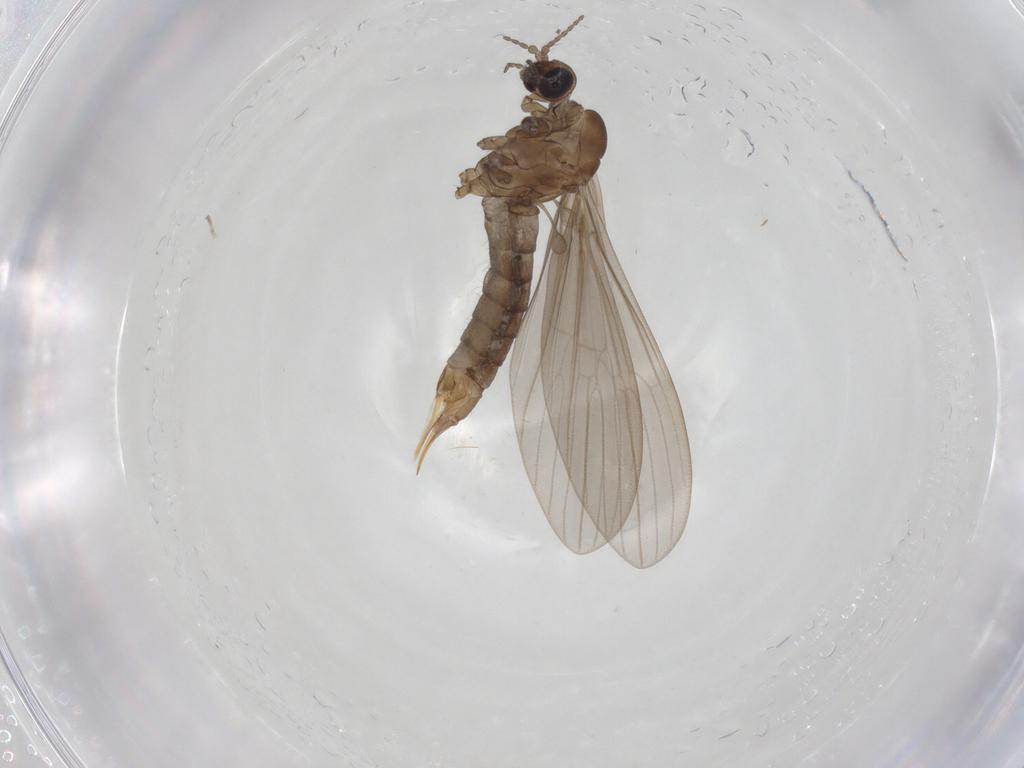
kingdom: Animalia
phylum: Arthropoda
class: Insecta
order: Diptera
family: Limoniidae
